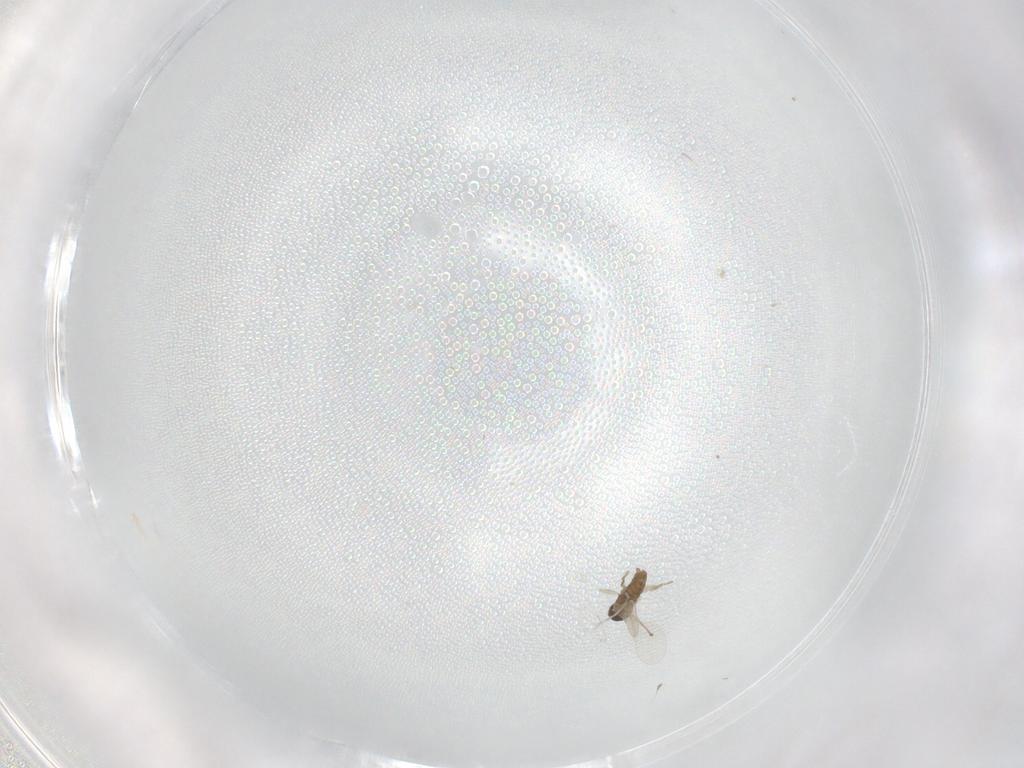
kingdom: Animalia
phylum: Arthropoda
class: Insecta
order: Diptera
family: Cecidomyiidae
